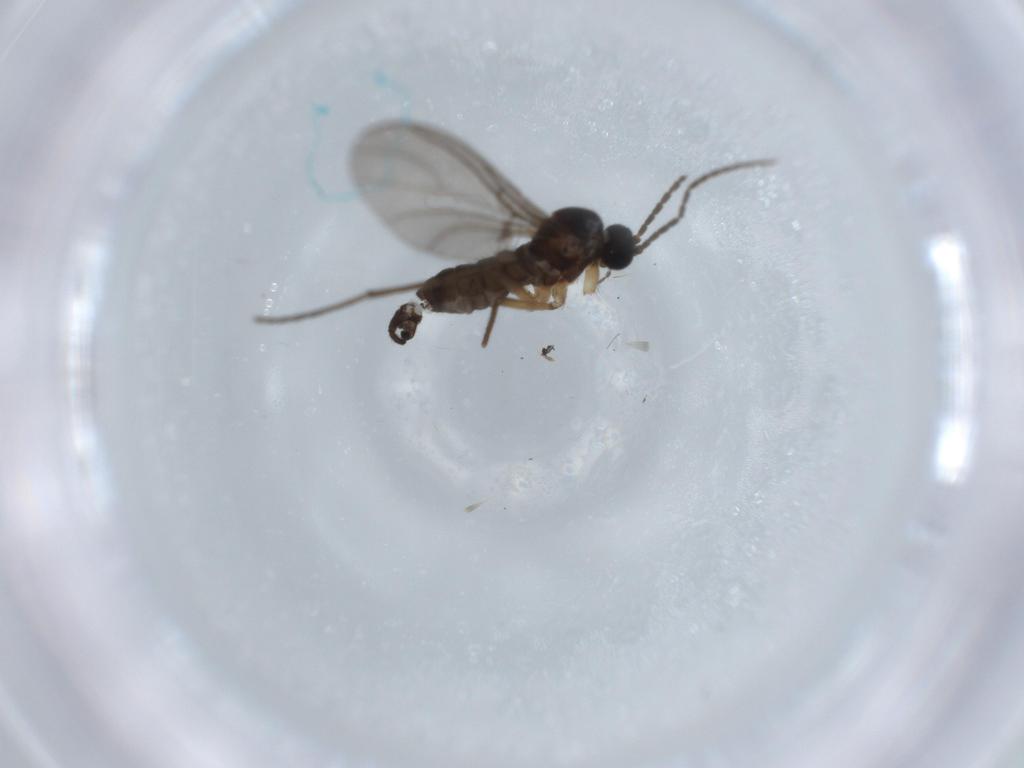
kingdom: Animalia
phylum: Arthropoda
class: Insecta
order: Diptera
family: Sciaridae
